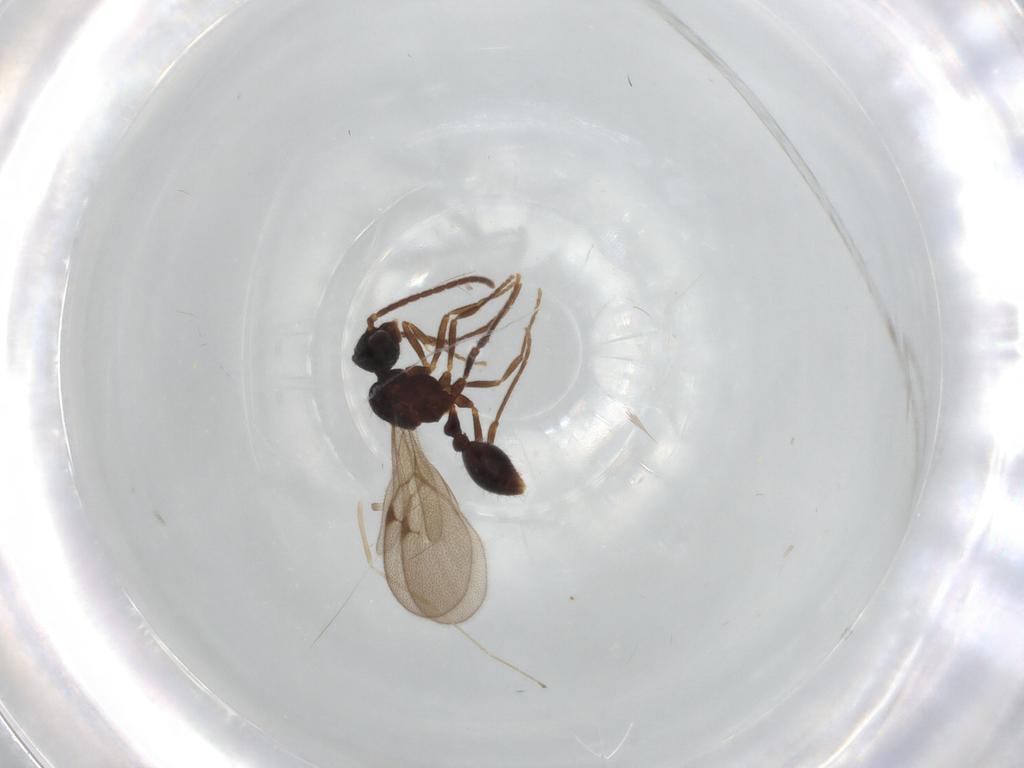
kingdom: Animalia
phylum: Arthropoda
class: Insecta
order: Hymenoptera
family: Formicidae
